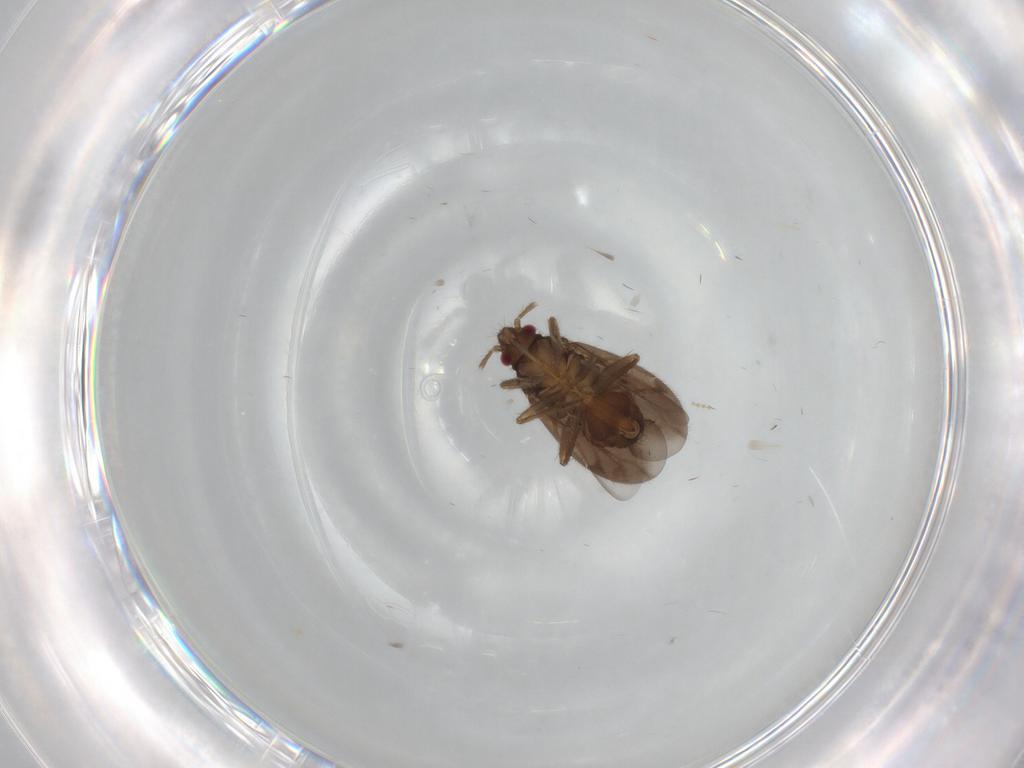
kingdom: Animalia
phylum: Arthropoda
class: Insecta
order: Hemiptera
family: Ceratocombidae
